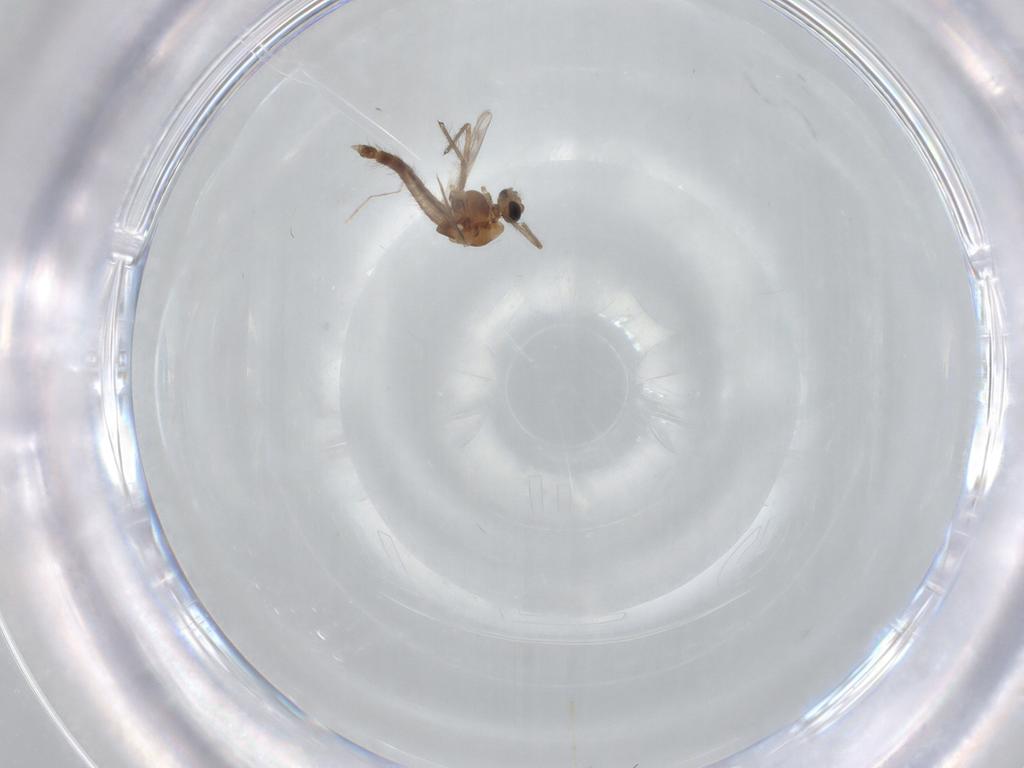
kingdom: Animalia
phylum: Arthropoda
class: Insecta
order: Diptera
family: Chironomidae
